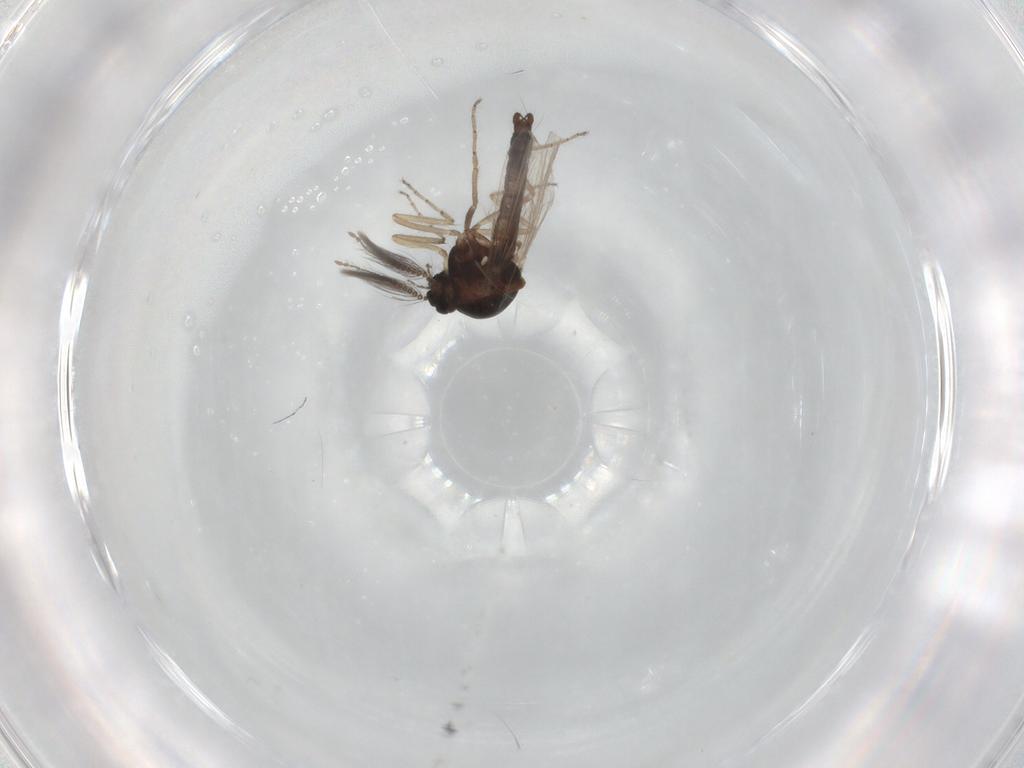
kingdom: Animalia
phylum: Arthropoda
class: Insecta
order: Diptera
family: Ceratopogonidae
